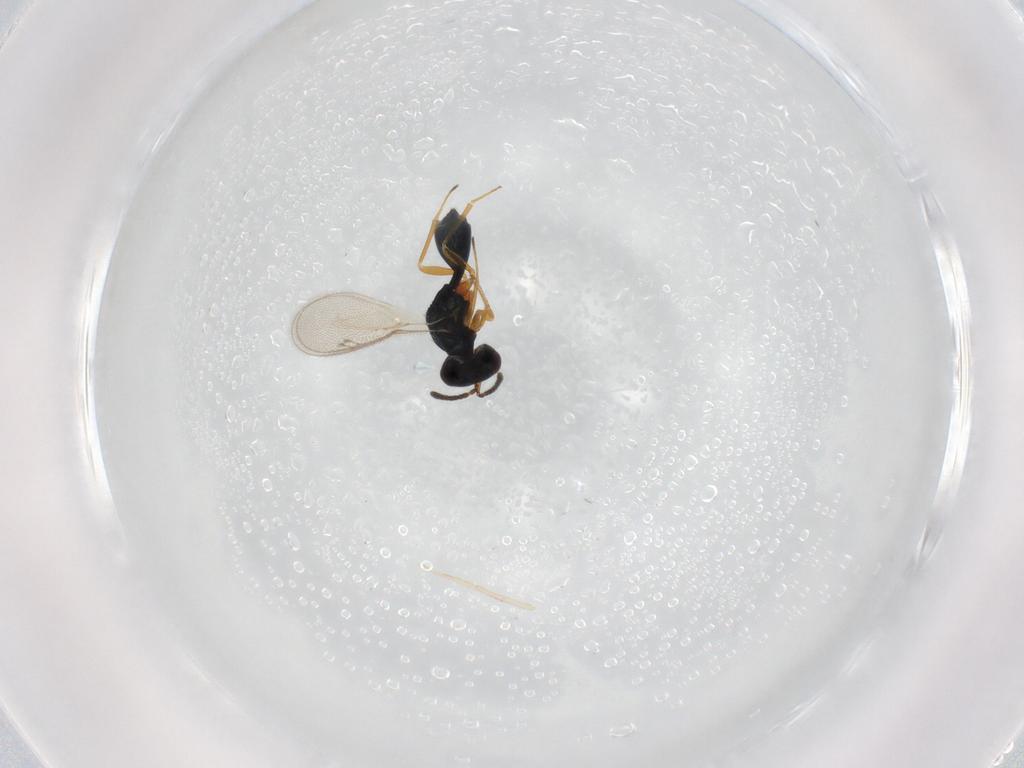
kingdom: Animalia
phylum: Arthropoda
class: Insecta
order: Hymenoptera
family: Pteromalidae
